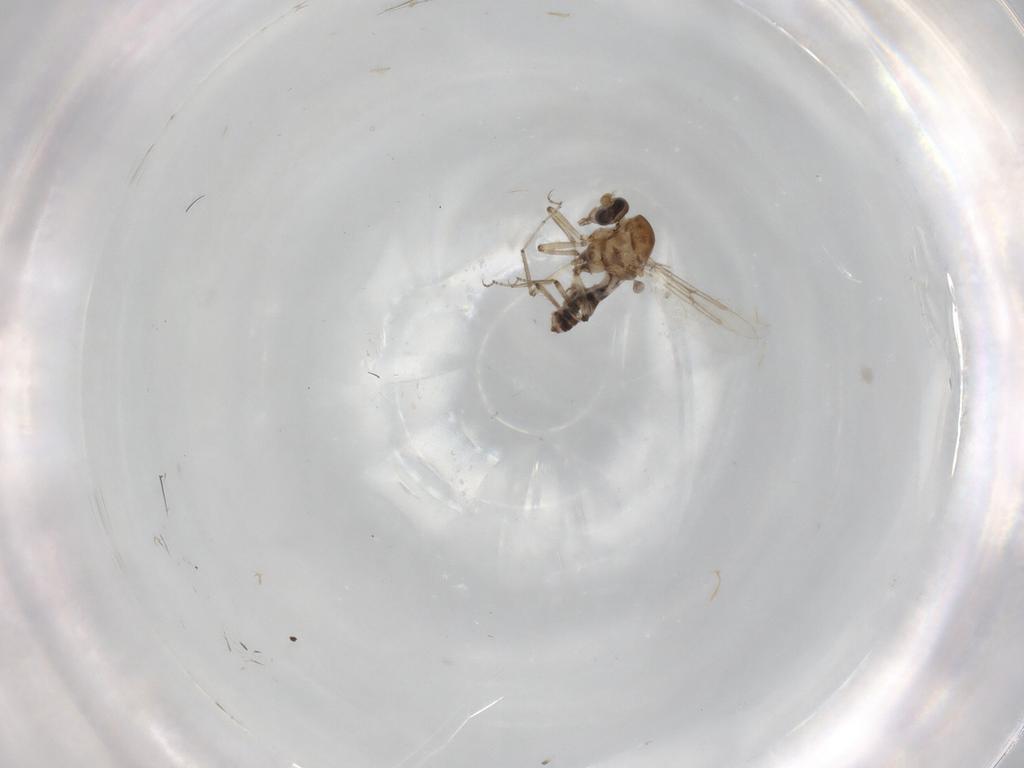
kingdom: Animalia
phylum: Arthropoda
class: Insecta
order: Diptera
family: Ceratopogonidae
